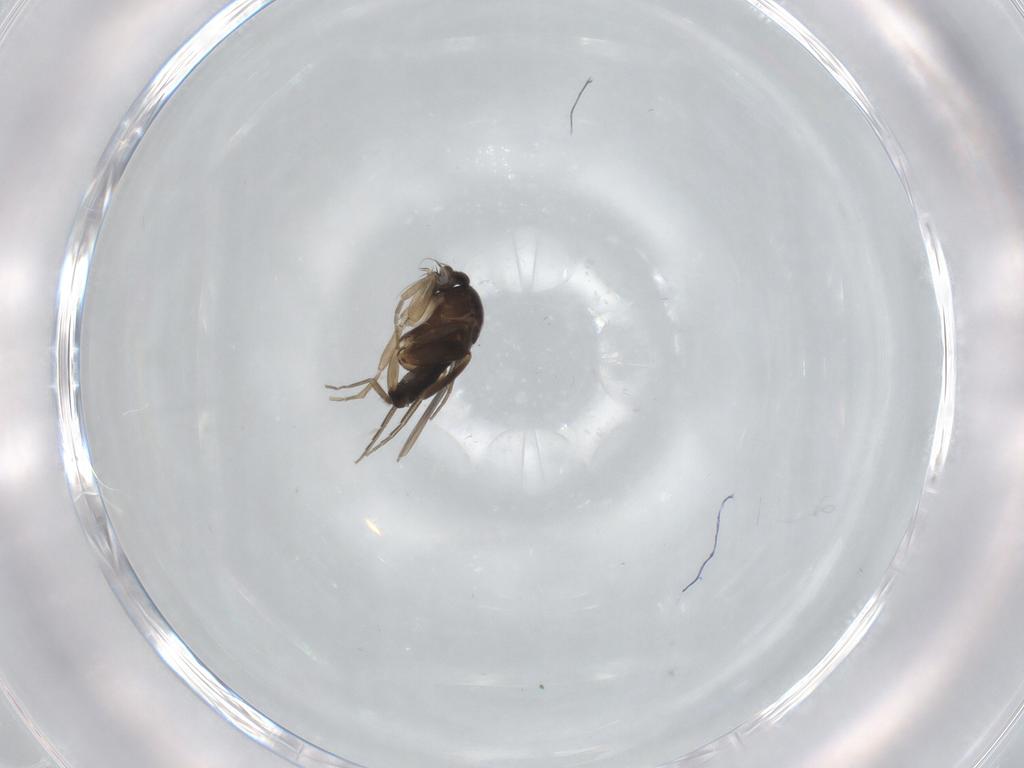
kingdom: Animalia
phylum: Arthropoda
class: Insecta
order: Diptera
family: Phoridae
